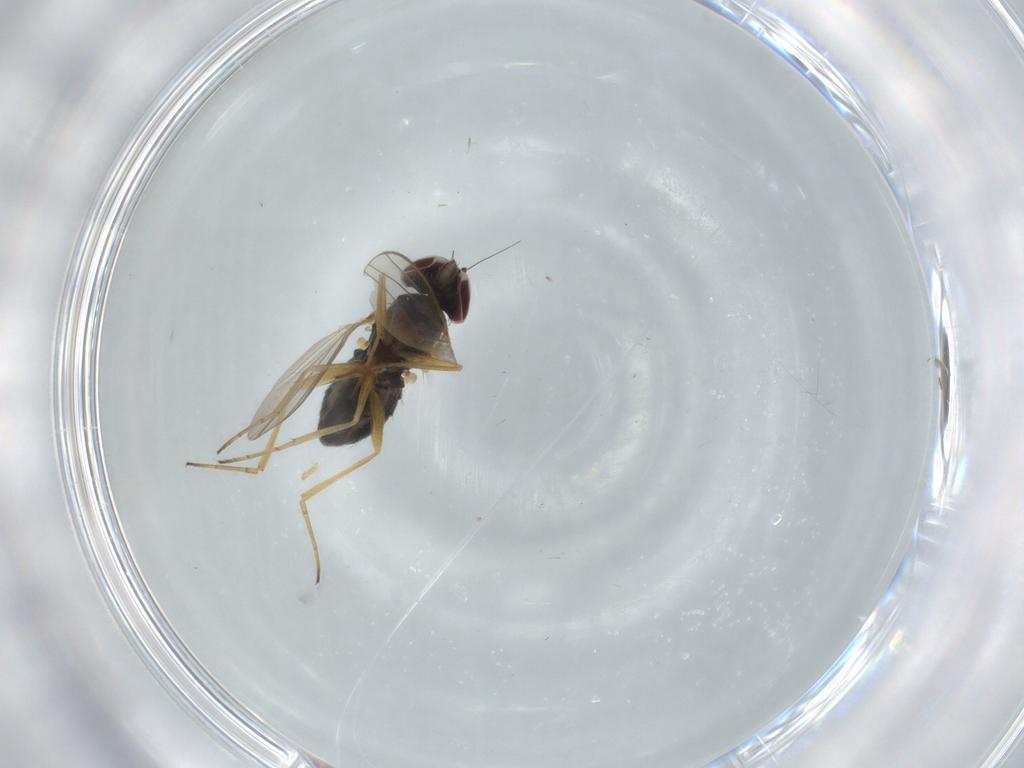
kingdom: Animalia
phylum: Arthropoda
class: Insecta
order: Diptera
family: Dolichopodidae
